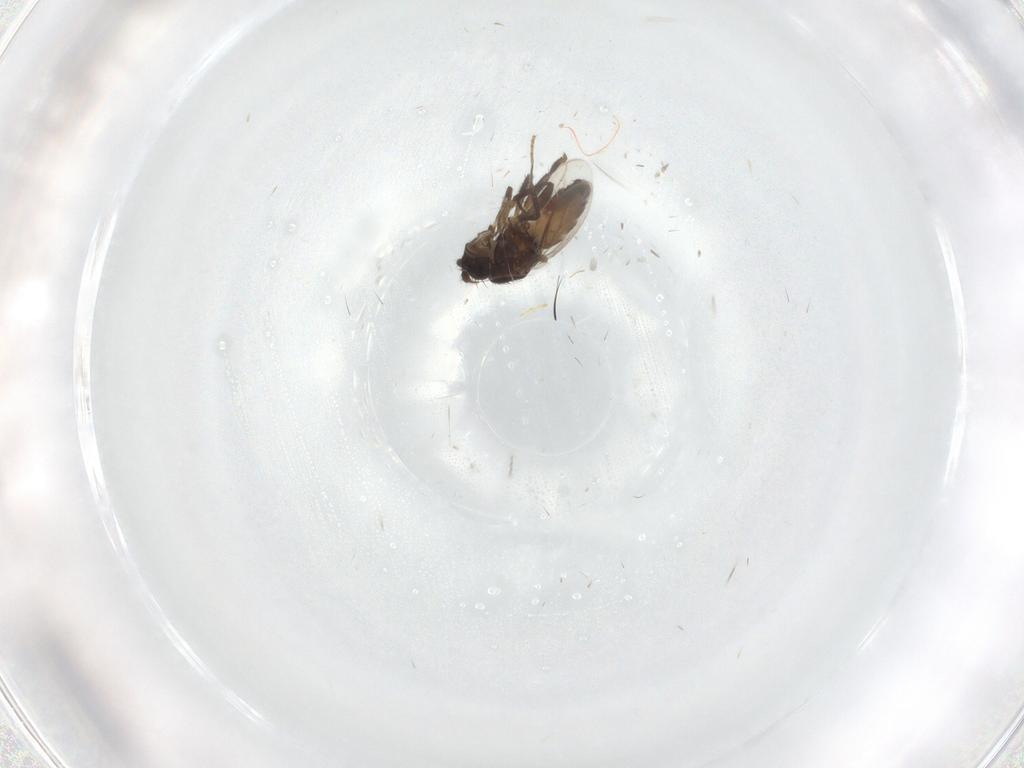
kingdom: Animalia
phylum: Arthropoda
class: Insecta
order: Diptera
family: Sphaeroceridae
